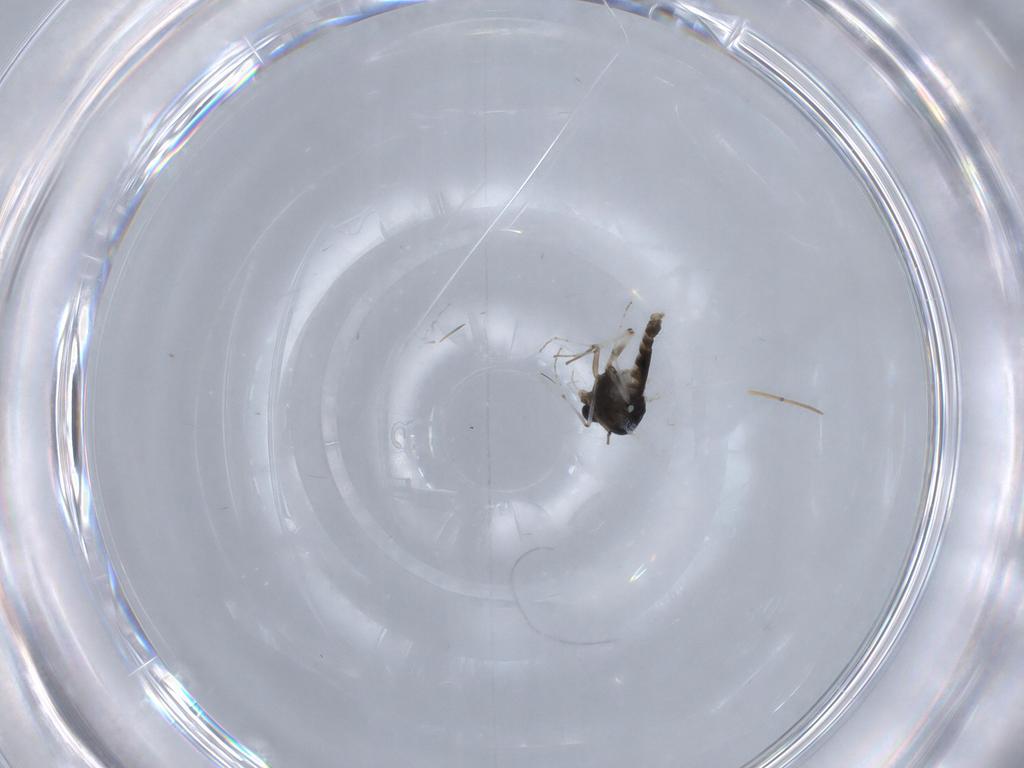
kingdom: Animalia
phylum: Arthropoda
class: Insecta
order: Diptera
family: Chironomidae
